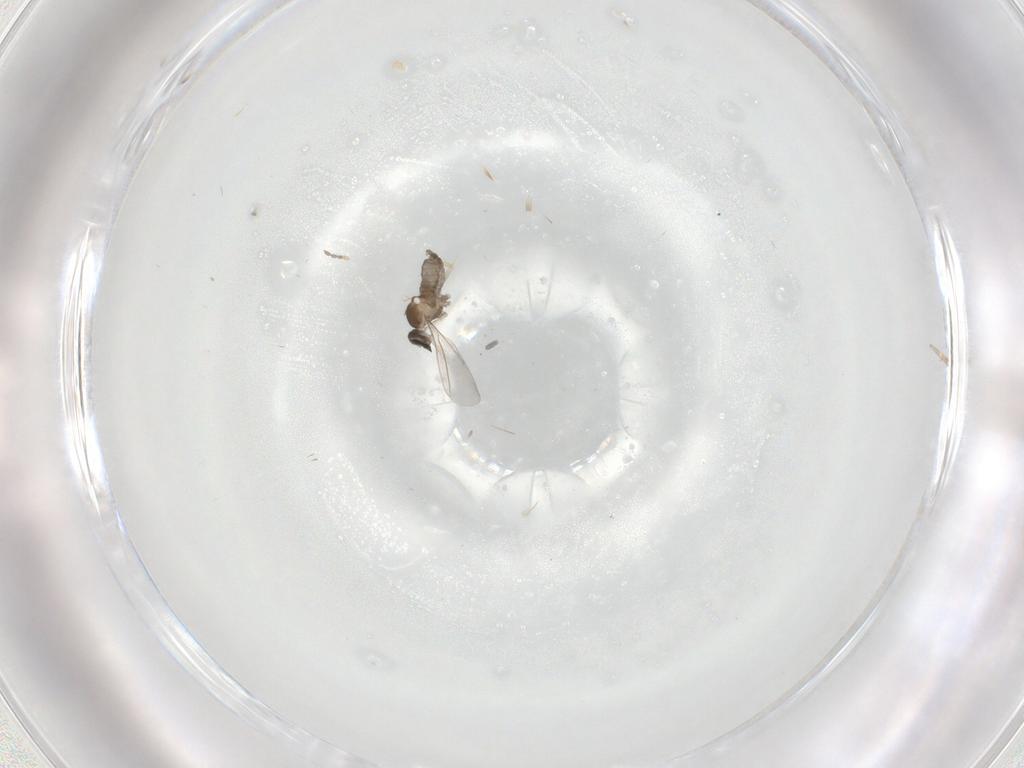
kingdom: Animalia
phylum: Arthropoda
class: Insecta
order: Diptera
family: Cecidomyiidae
